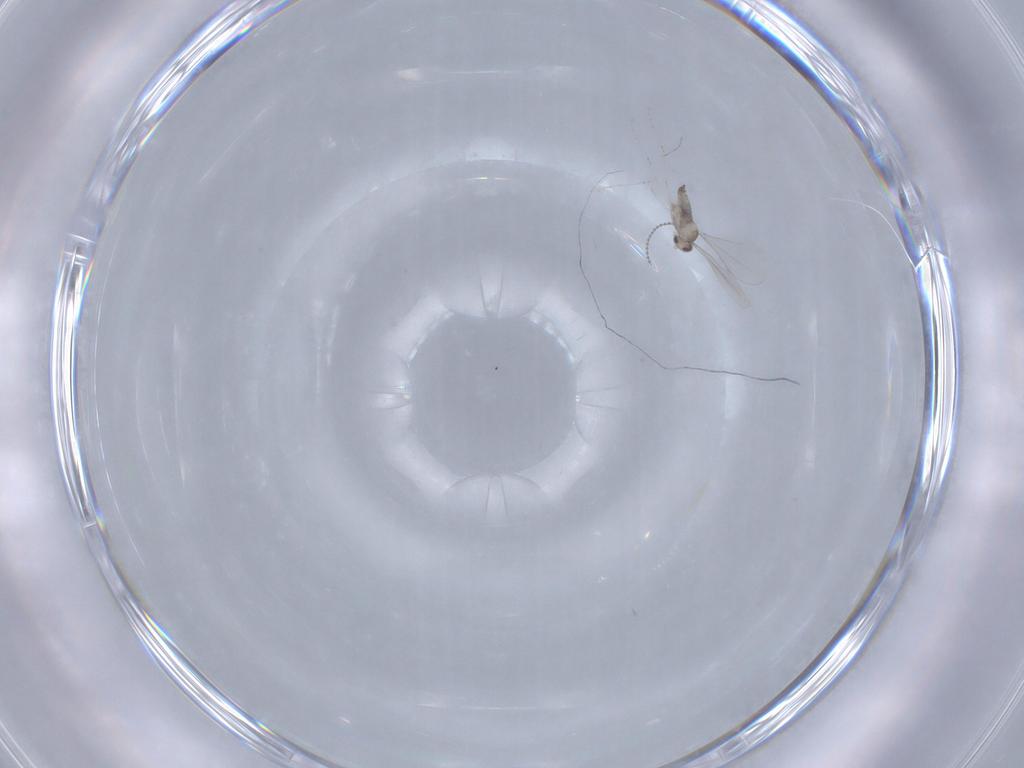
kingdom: Animalia
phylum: Arthropoda
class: Insecta
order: Diptera
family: Cecidomyiidae
